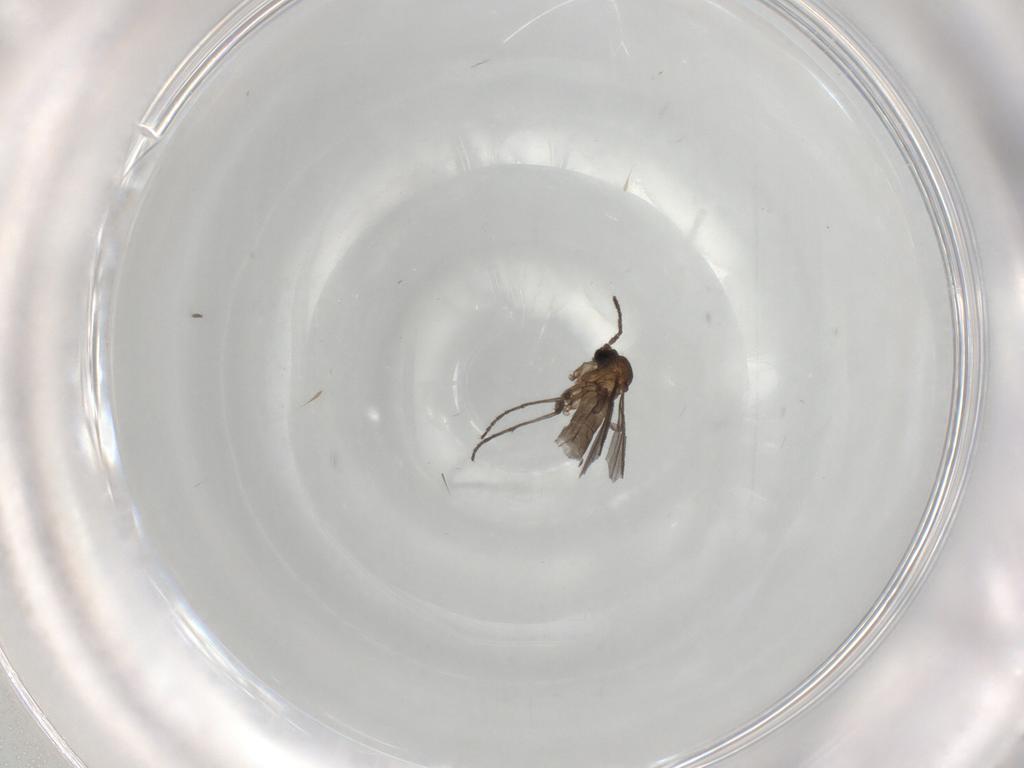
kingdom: Animalia
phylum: Arthropoda
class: Insecta
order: Diptera
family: Sciaridae
